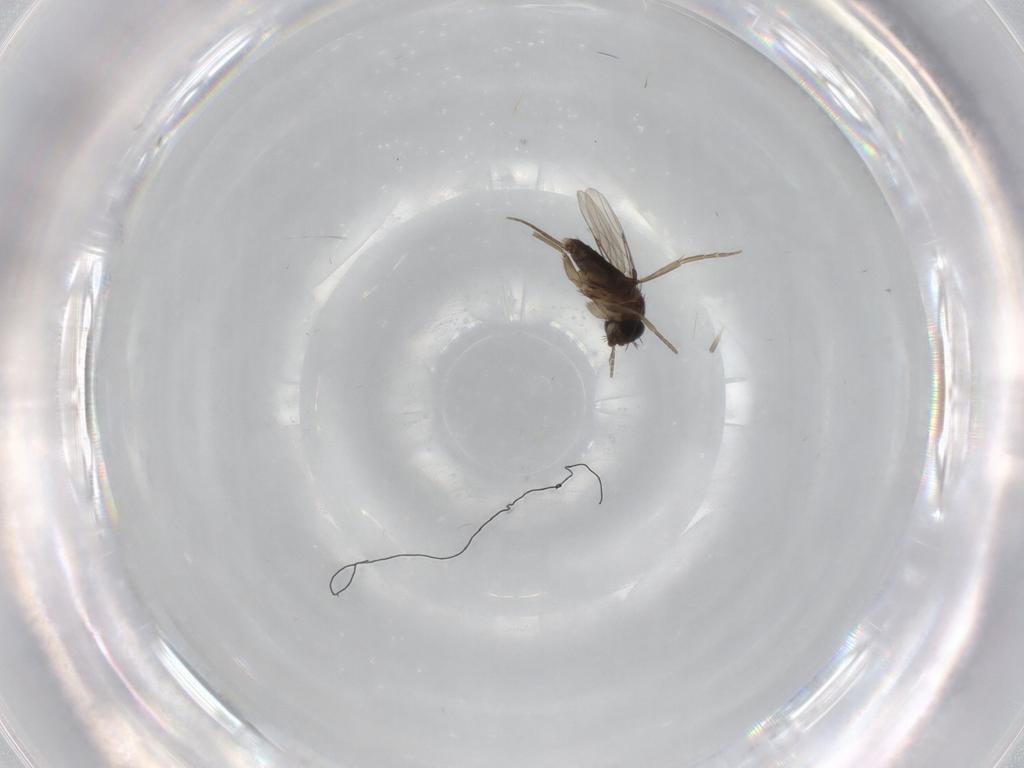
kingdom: Animalia
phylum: Arthropoda
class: Insecta
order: Diptera
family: Phoridae
